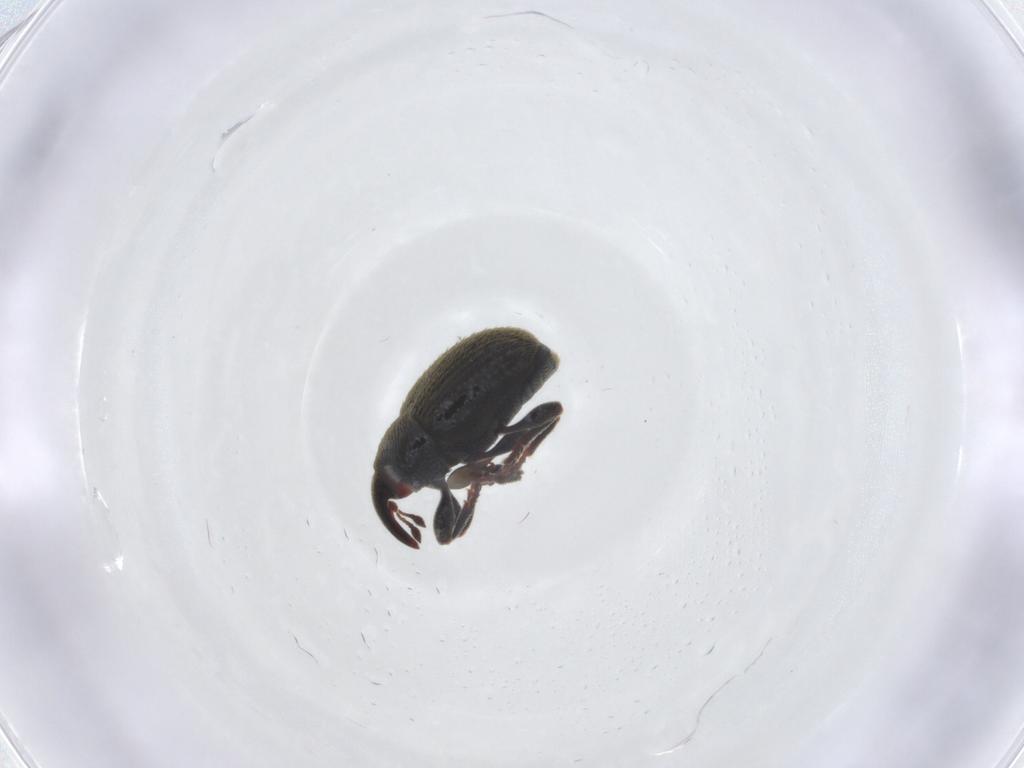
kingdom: Animalia
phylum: Arthropoda
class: Insecta
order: Coleoptera
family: Curculionidae
